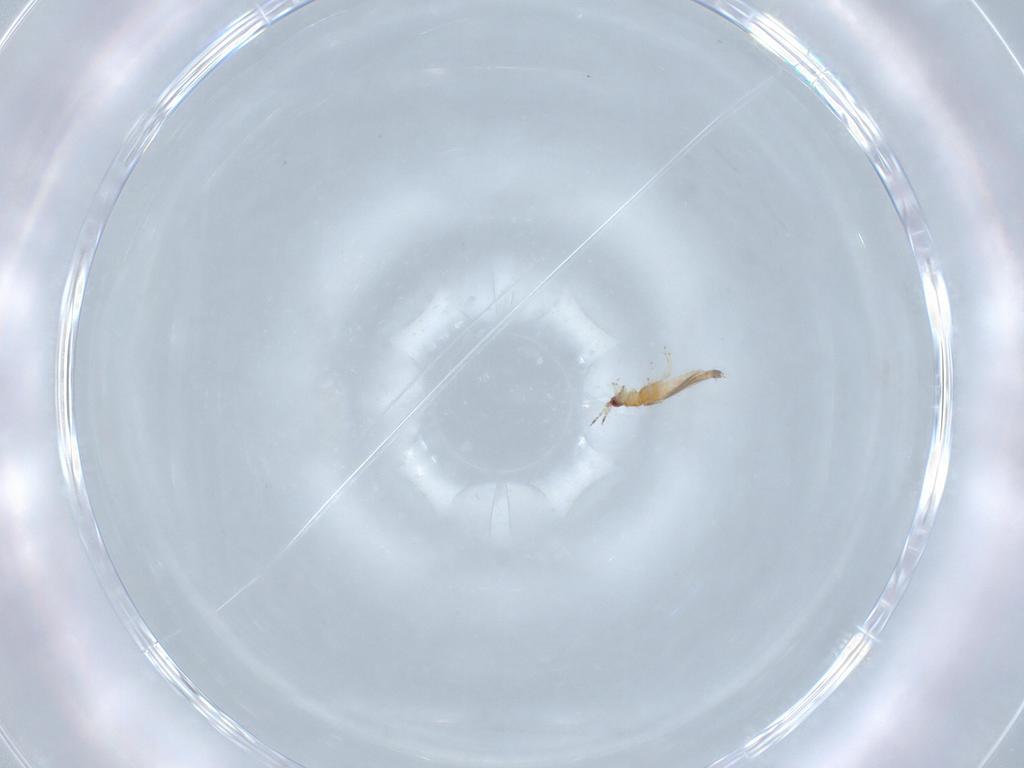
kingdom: Animalia
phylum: Arthropoda
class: Insecta
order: Thysanoptera
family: Thripidae
